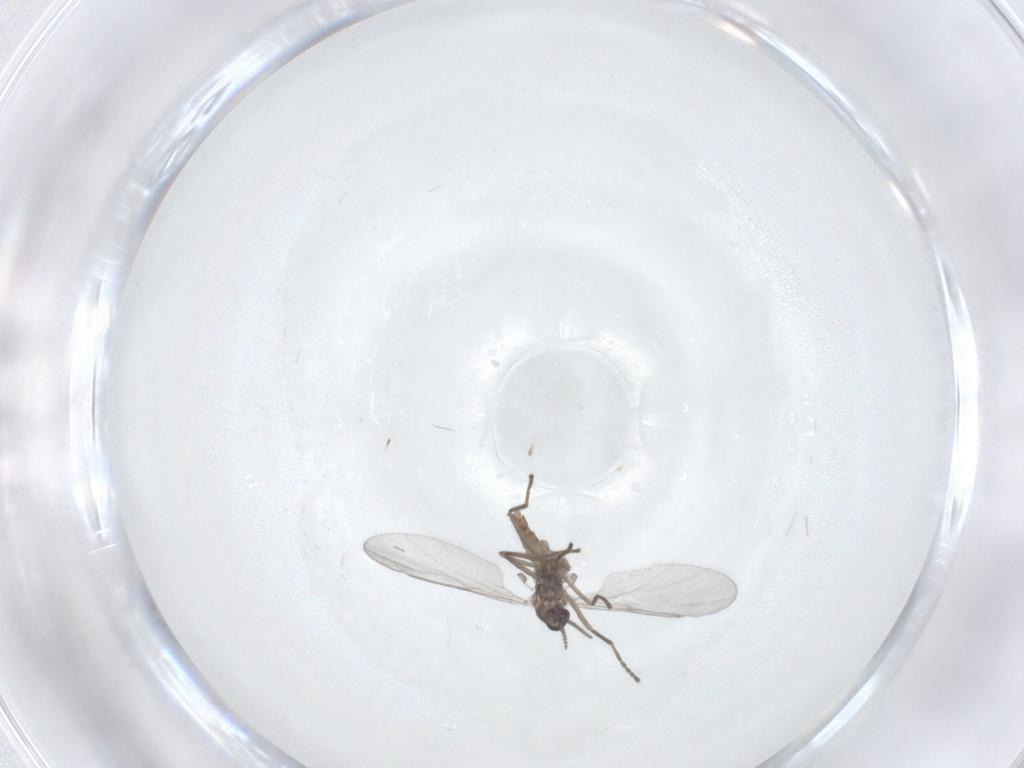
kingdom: Animalia
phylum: Arthropoda
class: Insecta
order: Diptera
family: Cecidomyiidae
